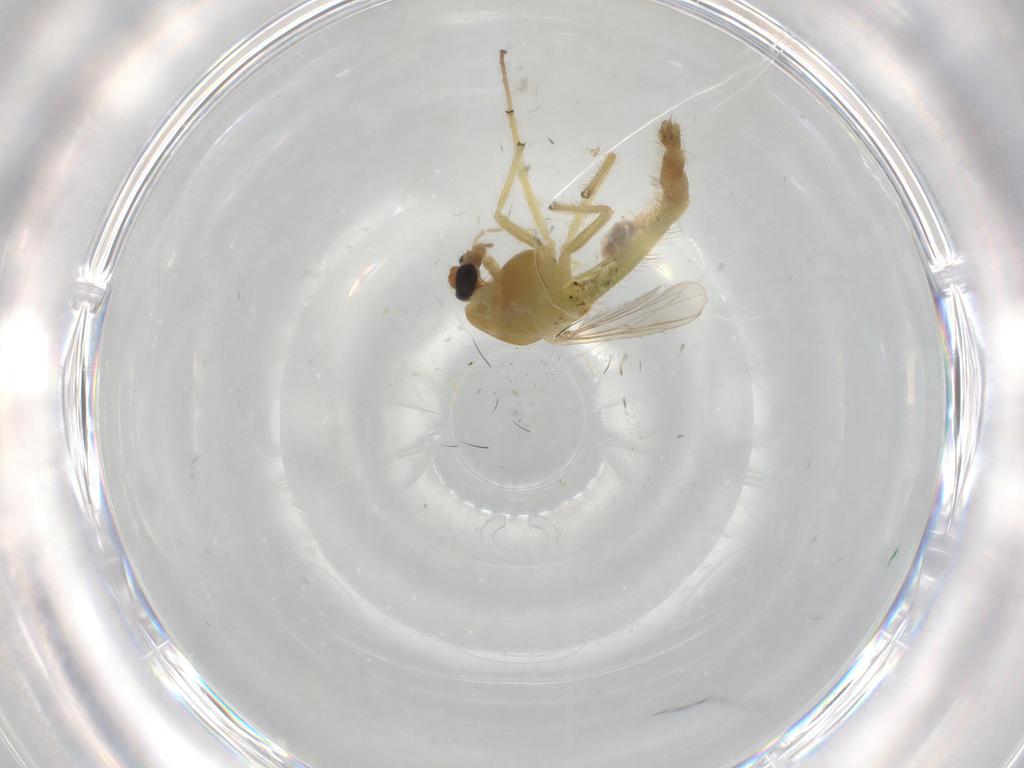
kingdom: Animalia
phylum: Arthropoda
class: Insecta
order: Diptera
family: Chironomidae
